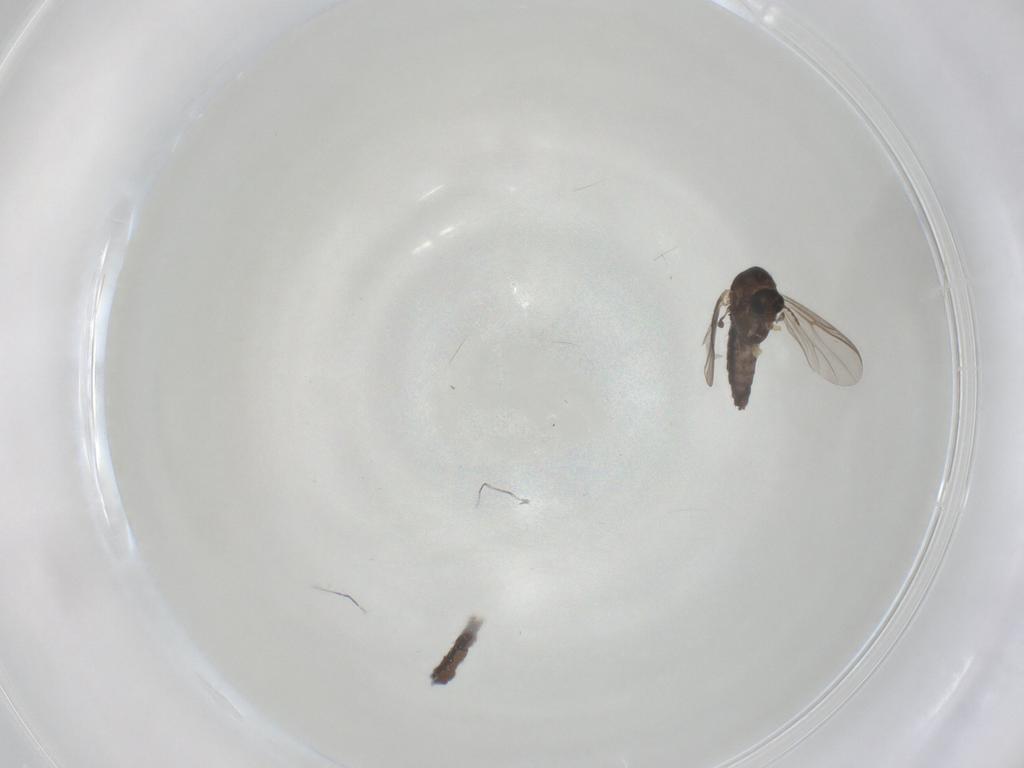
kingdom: Animalia
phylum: Arthropoda
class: Insecta
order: Diptera
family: Chironomidae
